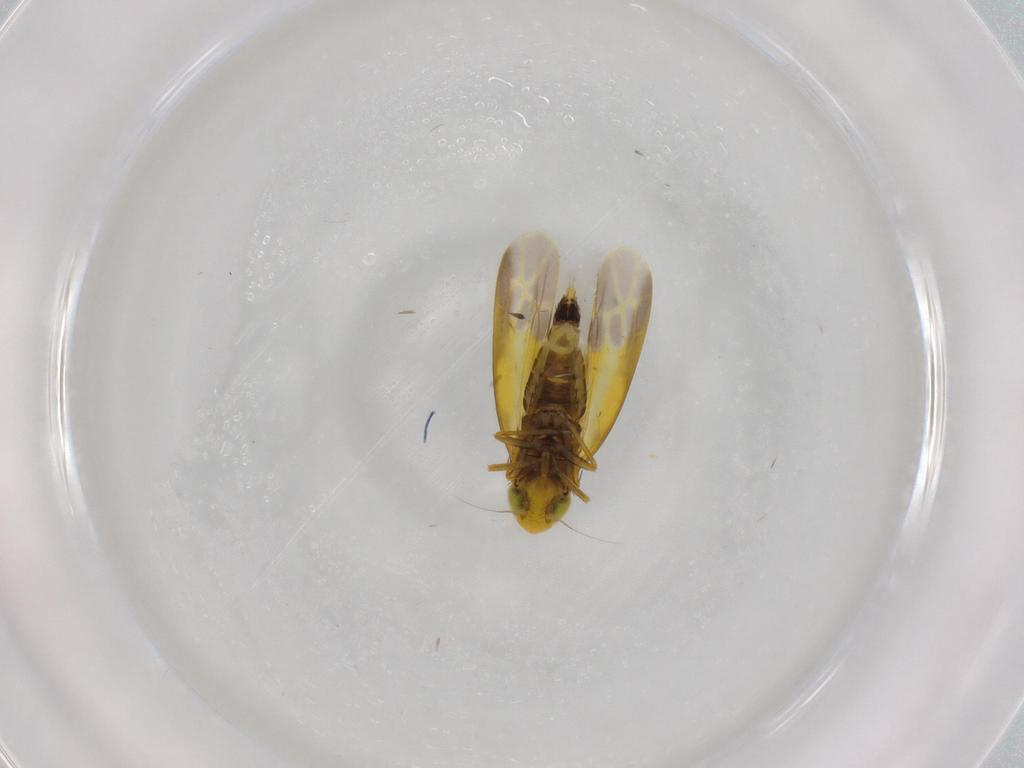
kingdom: Animalia
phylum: Arthropoda
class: Insecta
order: Hemiptera
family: Cicadellidae
